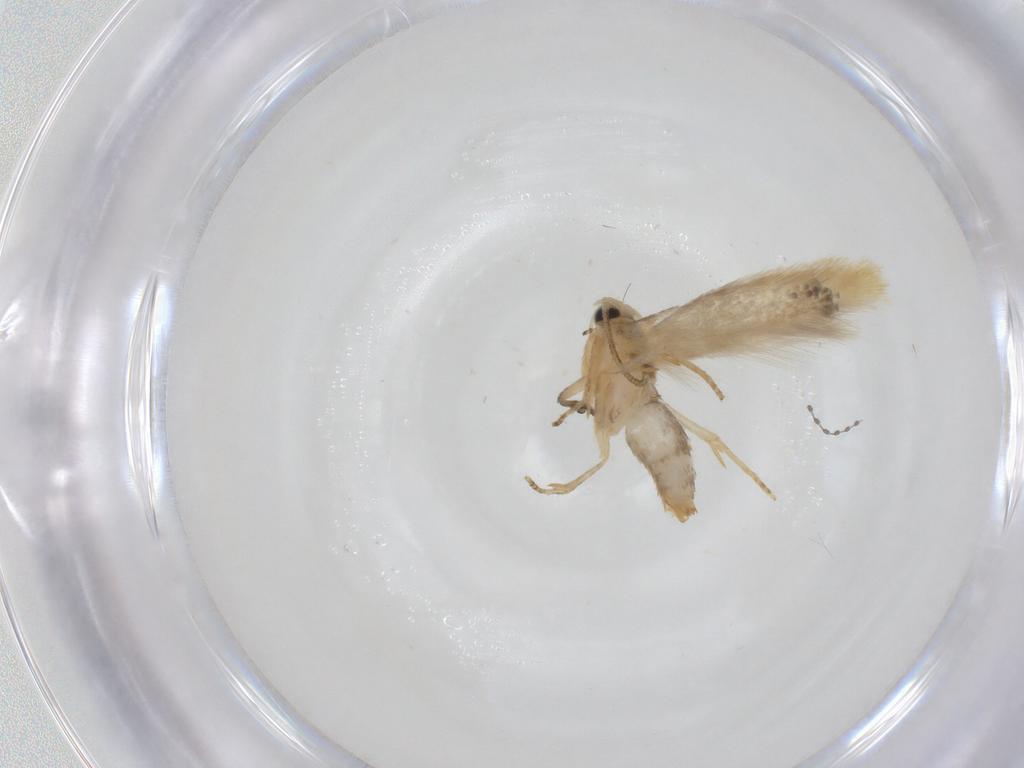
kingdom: Animalia
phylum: Arthropoda
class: Insecta
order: Lepidoptera
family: Nepticulidae
